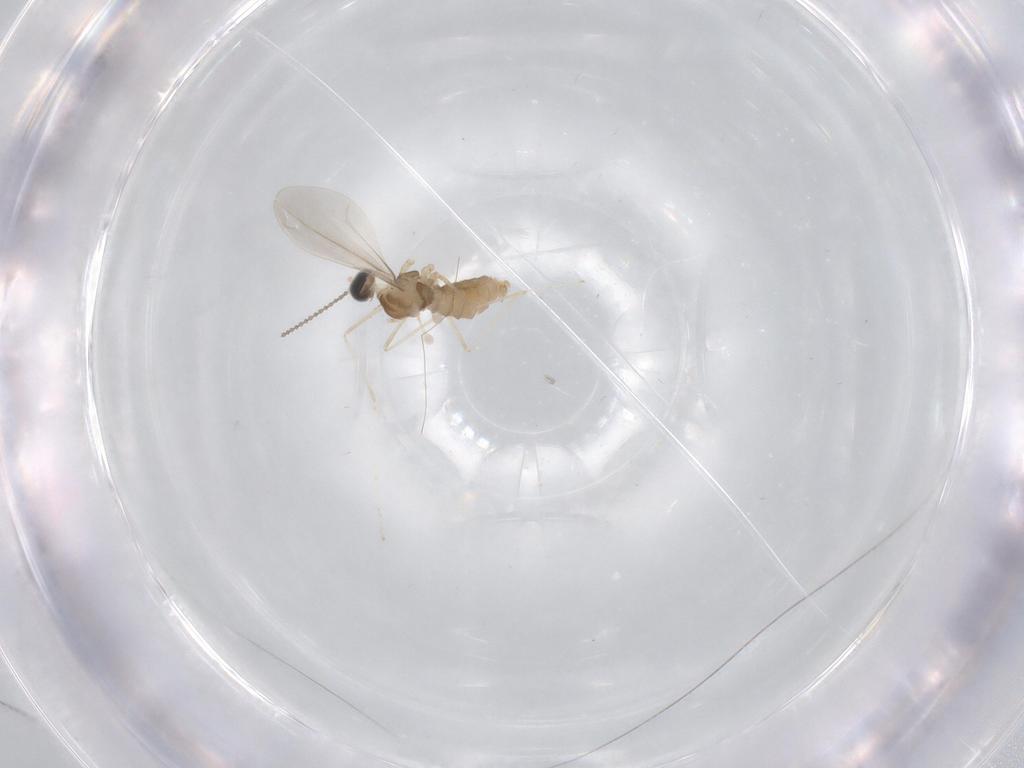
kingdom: Animalia
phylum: Arthropoda
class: Insecta
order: Diptera
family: Cecidomyiidae
